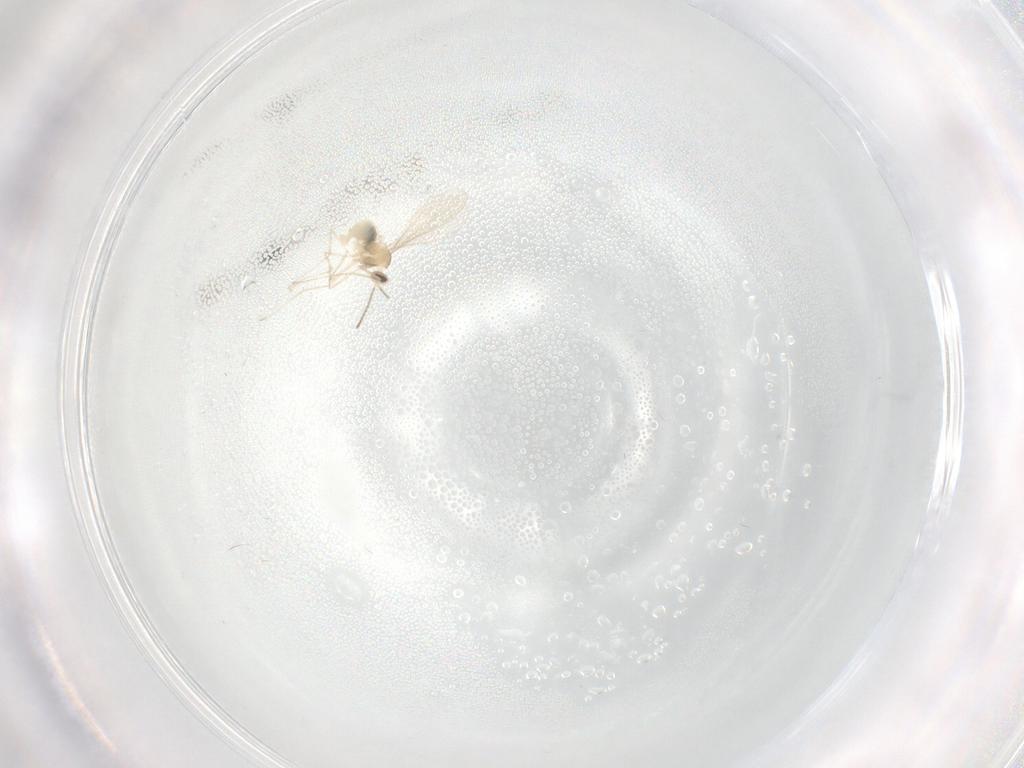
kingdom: Animalia
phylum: Arthropoda
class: Insecta
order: Diptera
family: Cecidomyiidae
